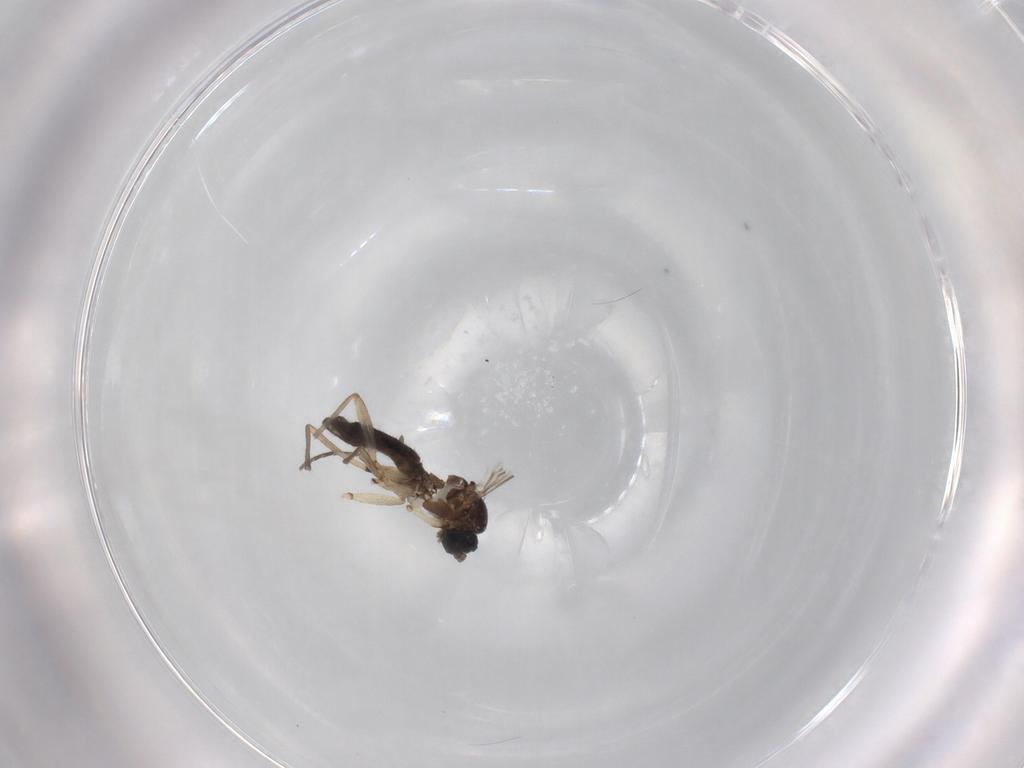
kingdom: Animalia
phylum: Arthropoda
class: Insecta
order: Diptera
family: Sciaridae
